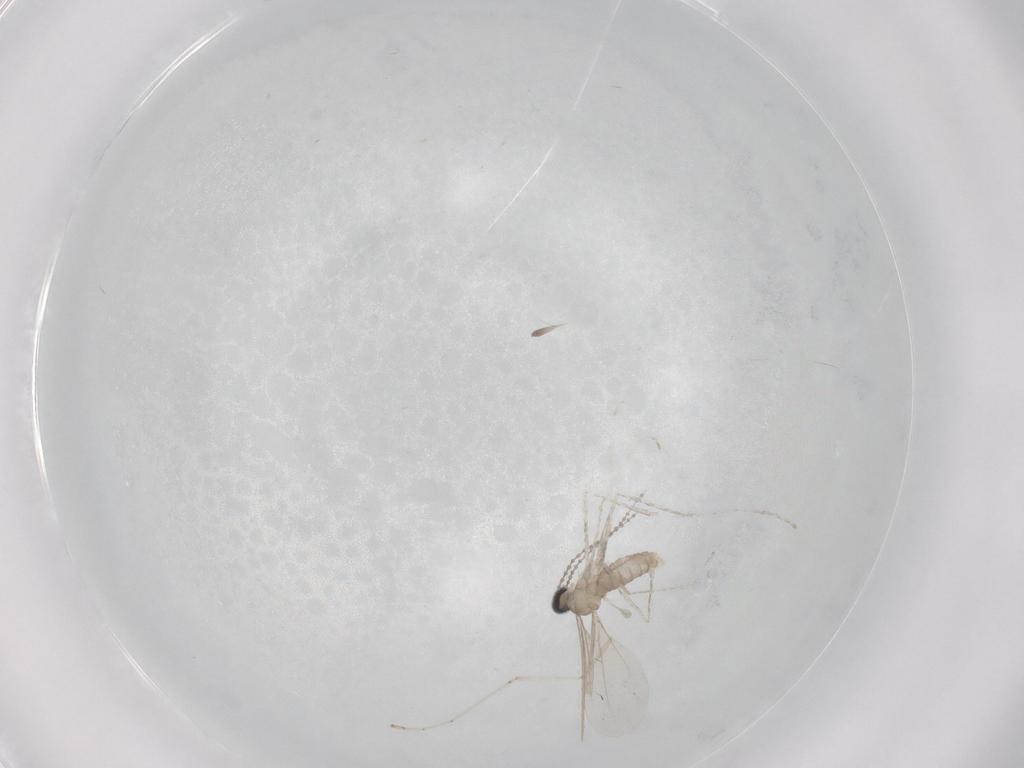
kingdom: Animalia
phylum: Arthropoda
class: Insecta
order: Diptera
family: Cecidomyiidae
